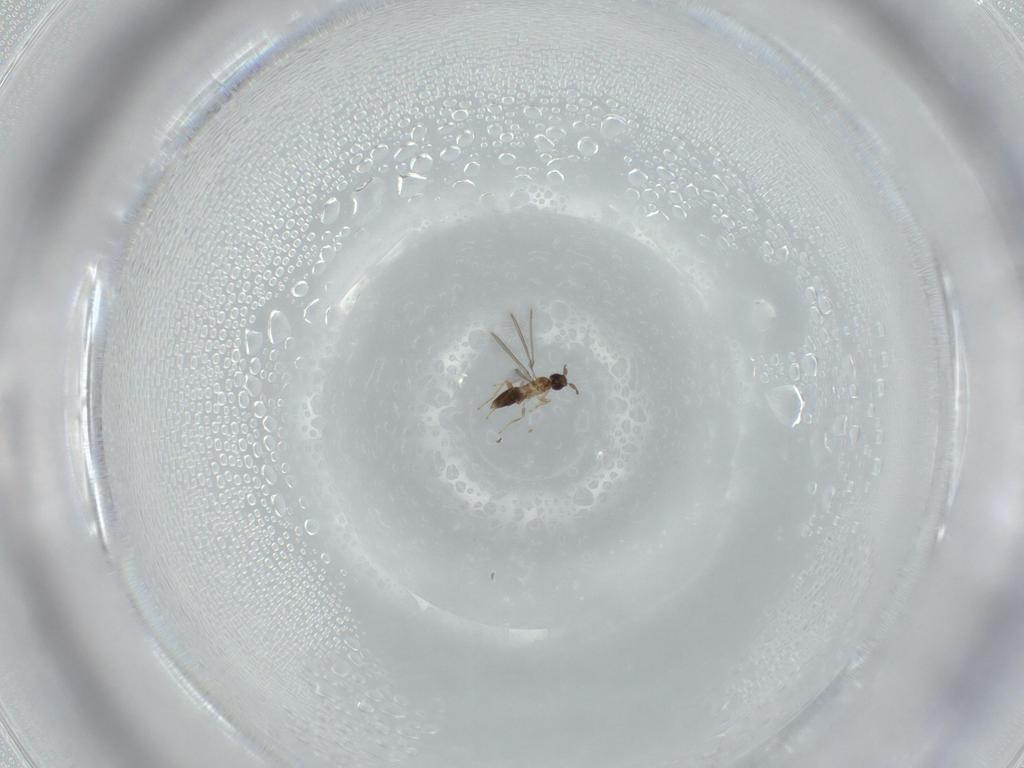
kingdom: Animalia
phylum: Arthropoda
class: Insecta
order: Hymenoptera
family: Mymaridae
